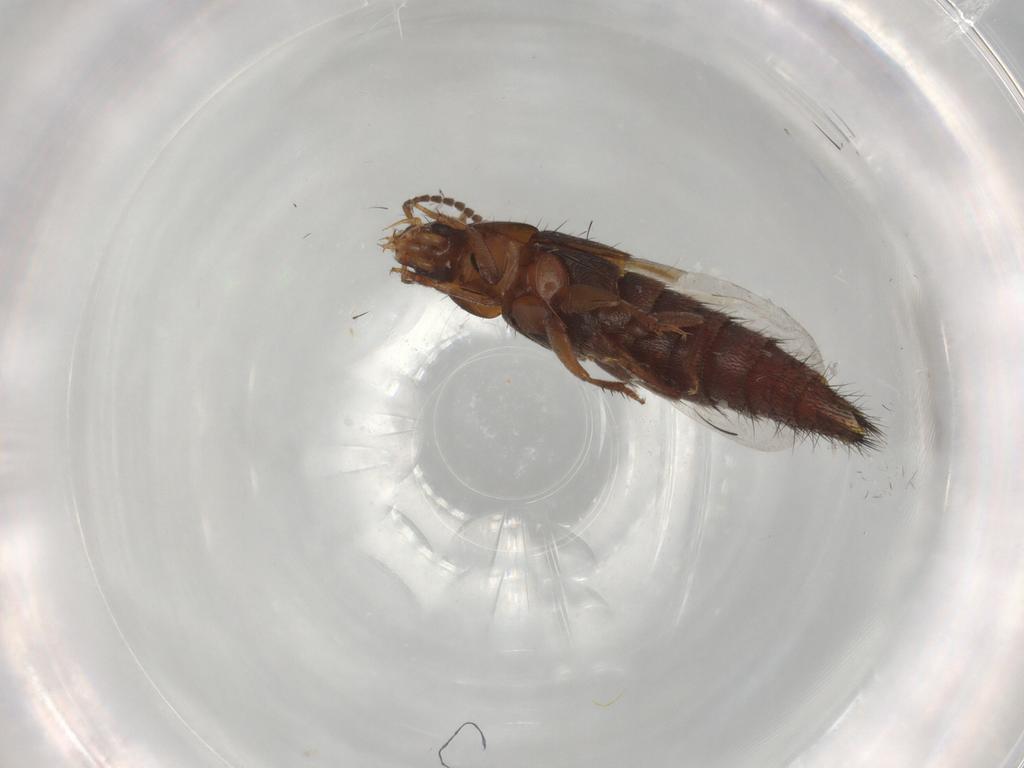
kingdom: Animalia
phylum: Arthropoda
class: Insecta
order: Coleoptera
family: Staphylinidae
